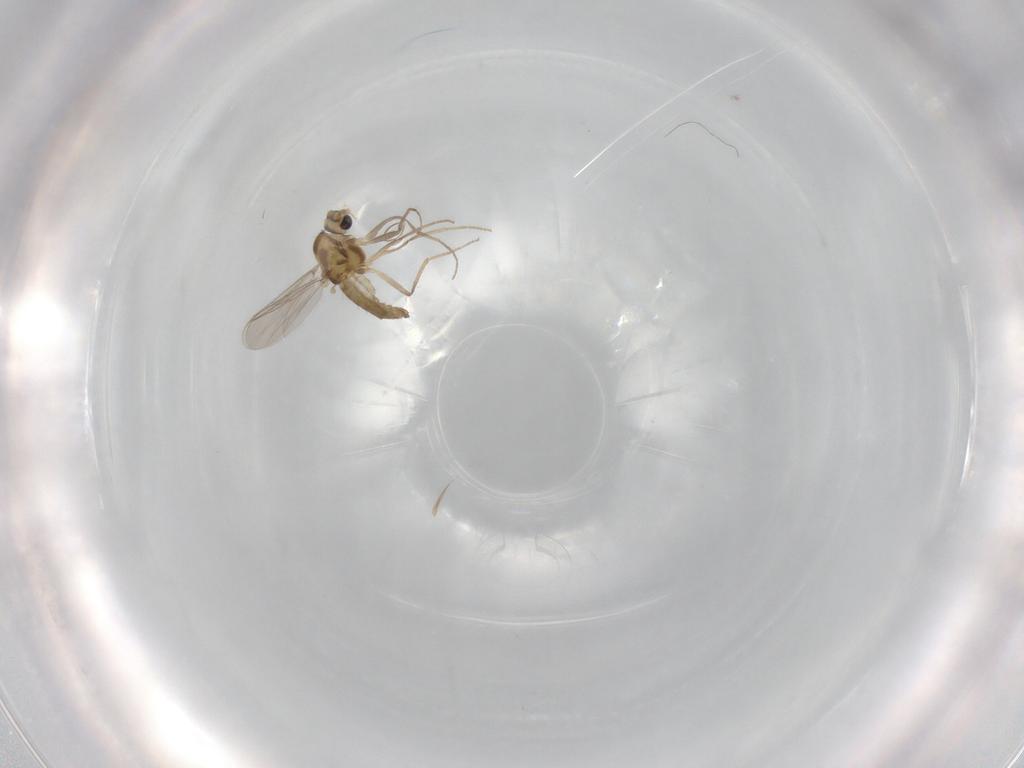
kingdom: Animalia
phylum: Arthropoda
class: Insecta
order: Diptera
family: Chironomidae
